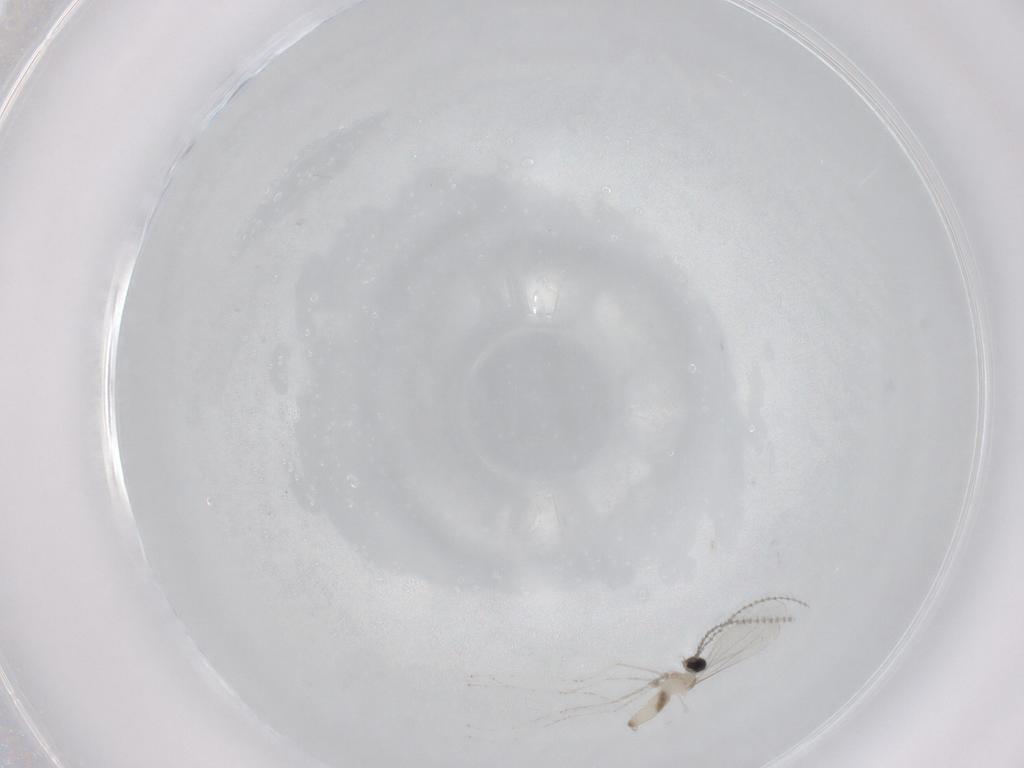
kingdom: Animalia
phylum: Arthropoda
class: Insecta
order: Diptera
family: Cecidomyiidae
